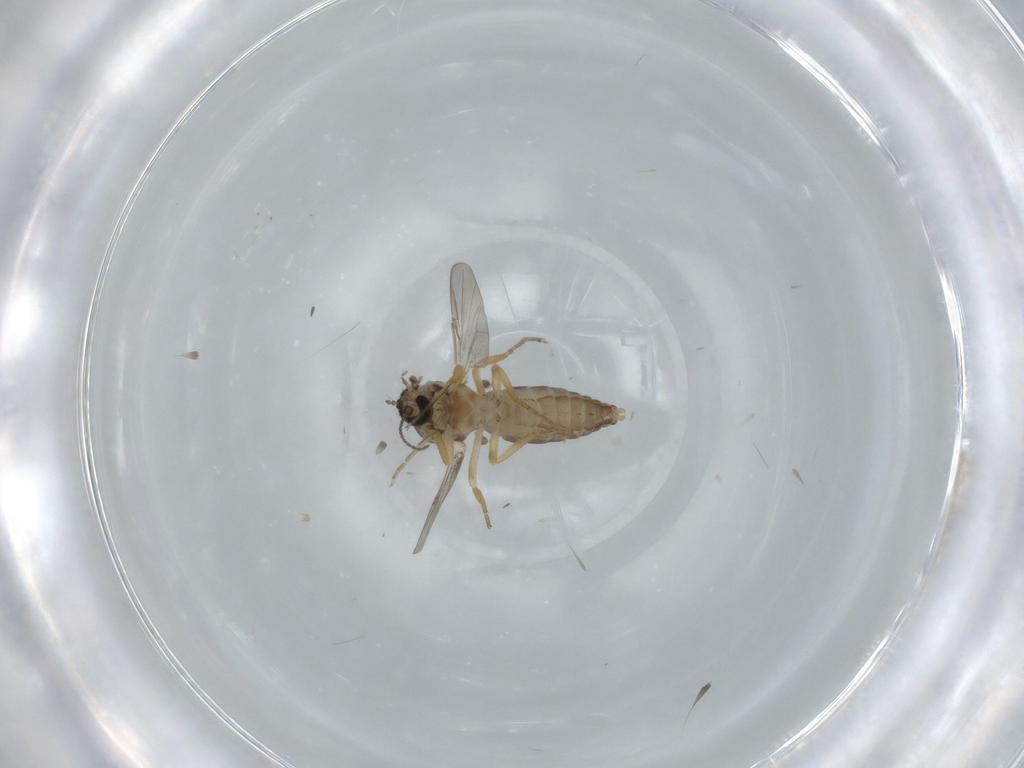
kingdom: Animalia
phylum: Arthropoda
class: Insecta
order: Diptera
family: Ceratopogonidae
